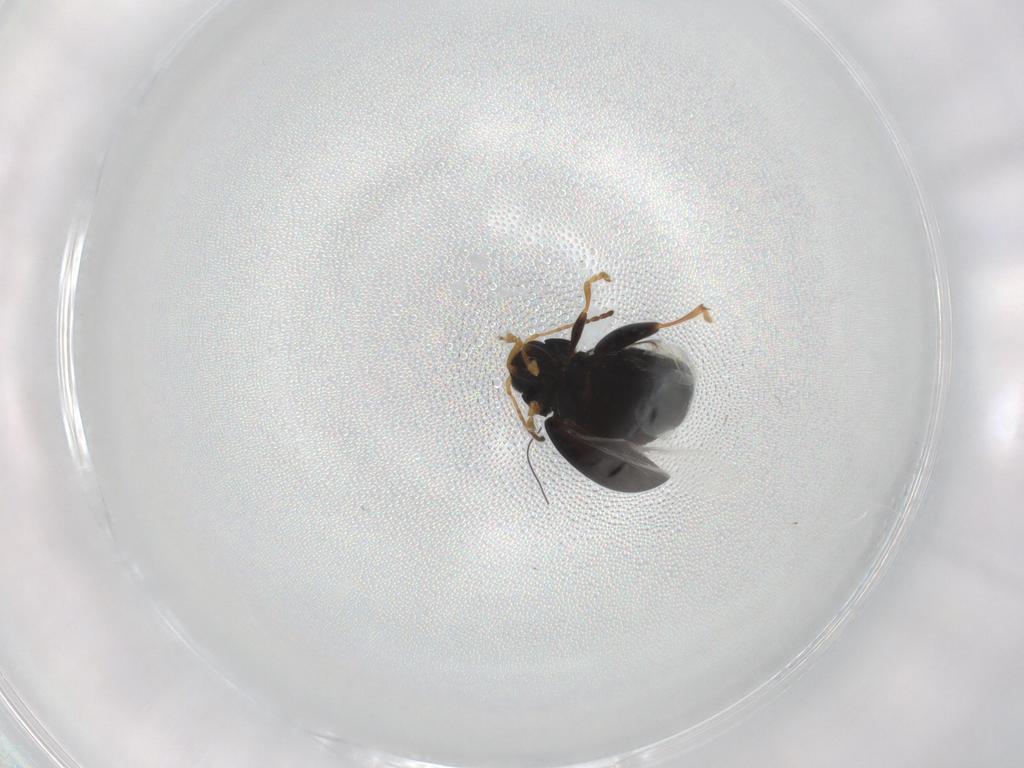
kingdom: Animalia
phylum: Arthropoda
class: Insecta
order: Coleoptera
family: Chrysomelidae
